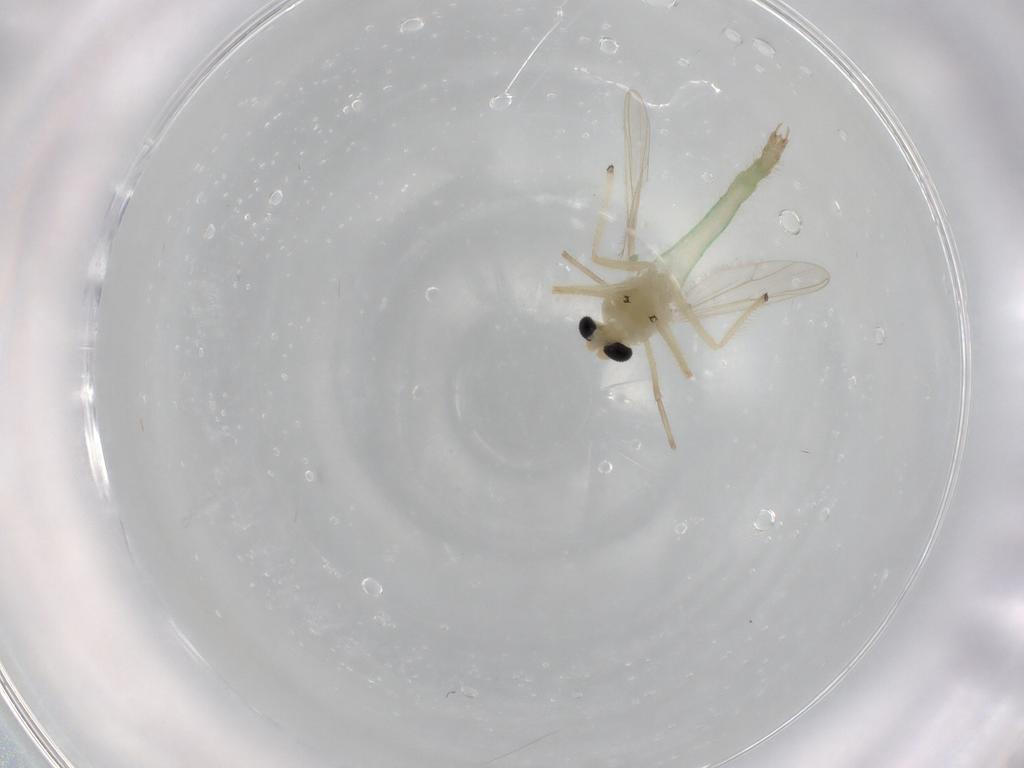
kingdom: Animalia
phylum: Arthropoda
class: Insecta
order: Diptera
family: Chironomidae
